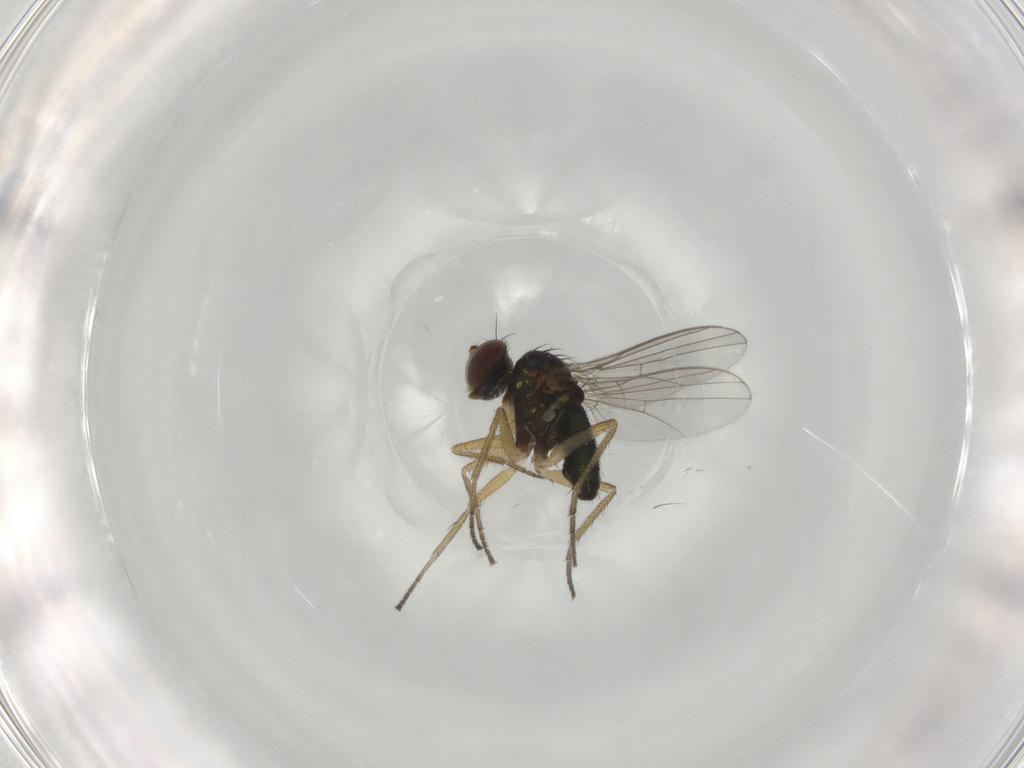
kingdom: Animalia
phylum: Arthropoda
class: Insecta
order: Diptera
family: Dolichopodidae
